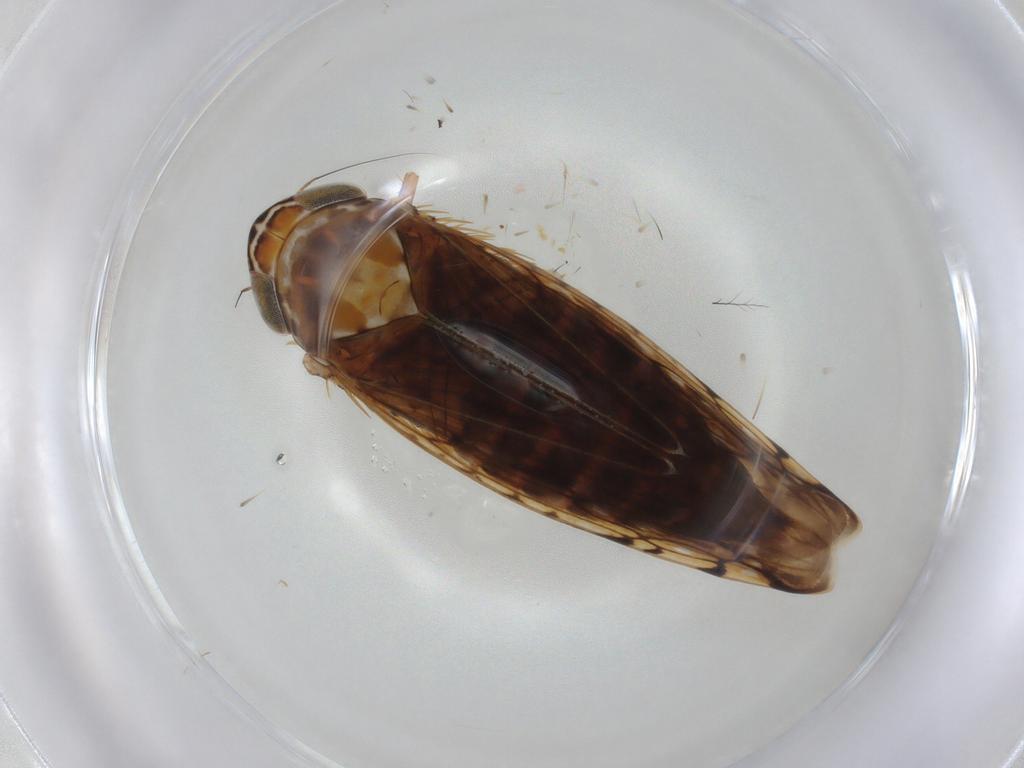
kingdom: Animalia
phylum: Arthropoda
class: Insecta
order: Hemiptera
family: Cicadellidae
